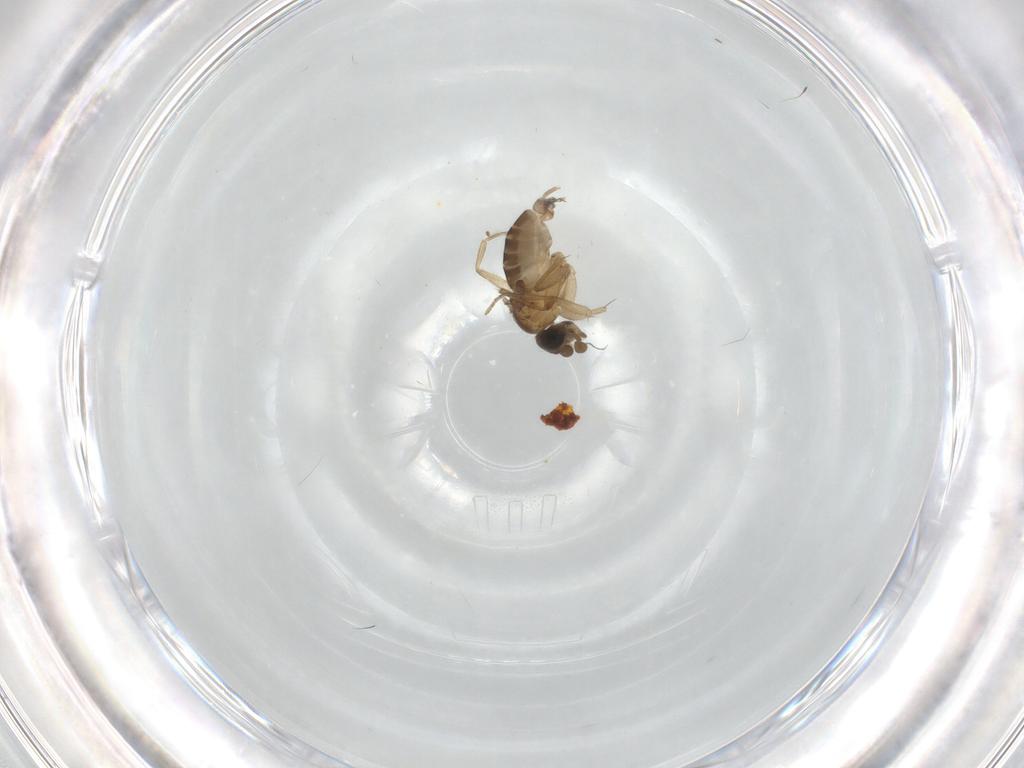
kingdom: Animalia
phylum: Arthropoda
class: Insecta
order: Diptera
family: Phoridae
